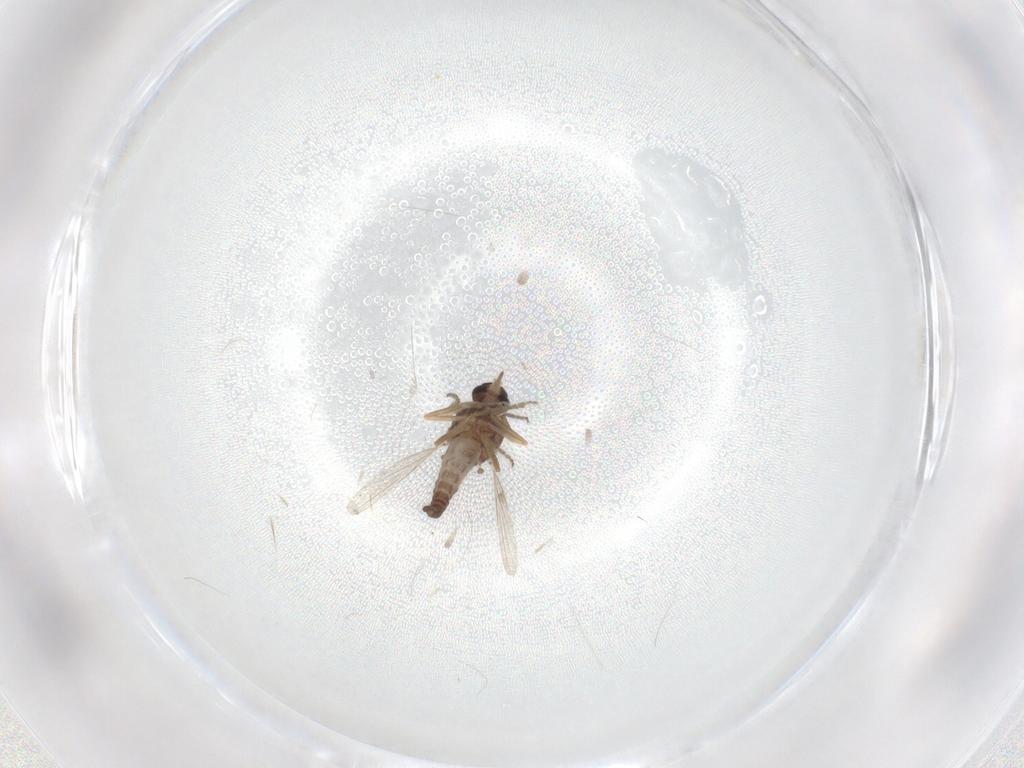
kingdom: Animalia
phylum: Arthropoda
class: Insecta
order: Diptera
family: Ceratopogonidae
